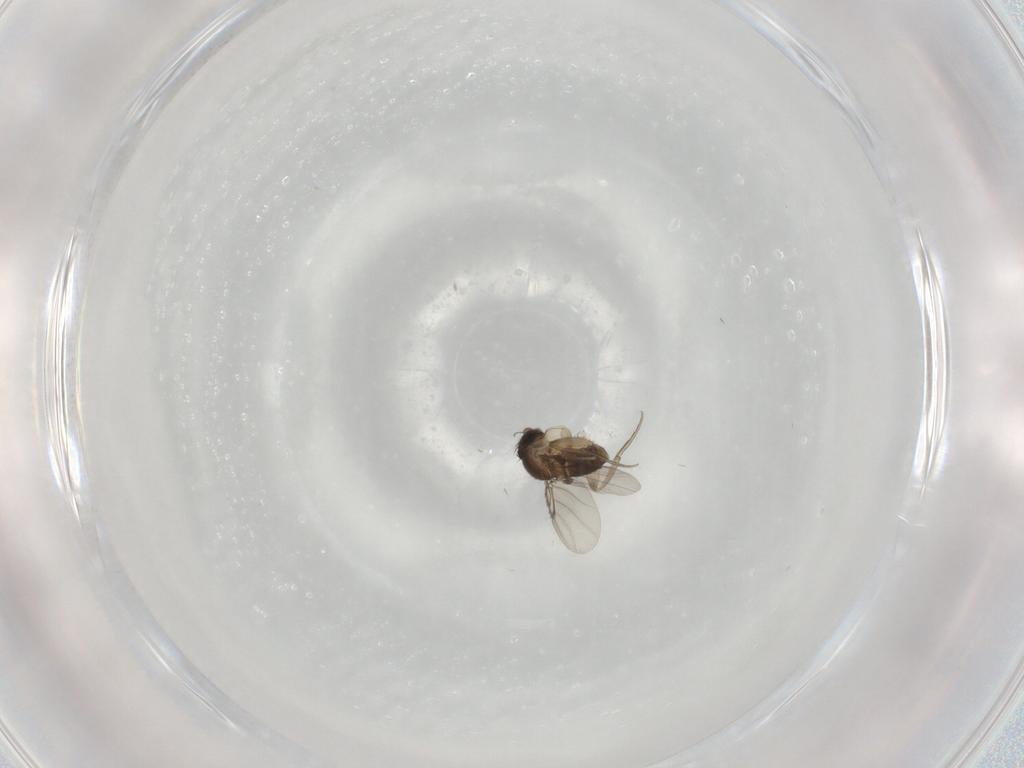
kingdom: Animalia
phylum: Arthropoda
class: Insecta
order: Diptera
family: Phoridae
